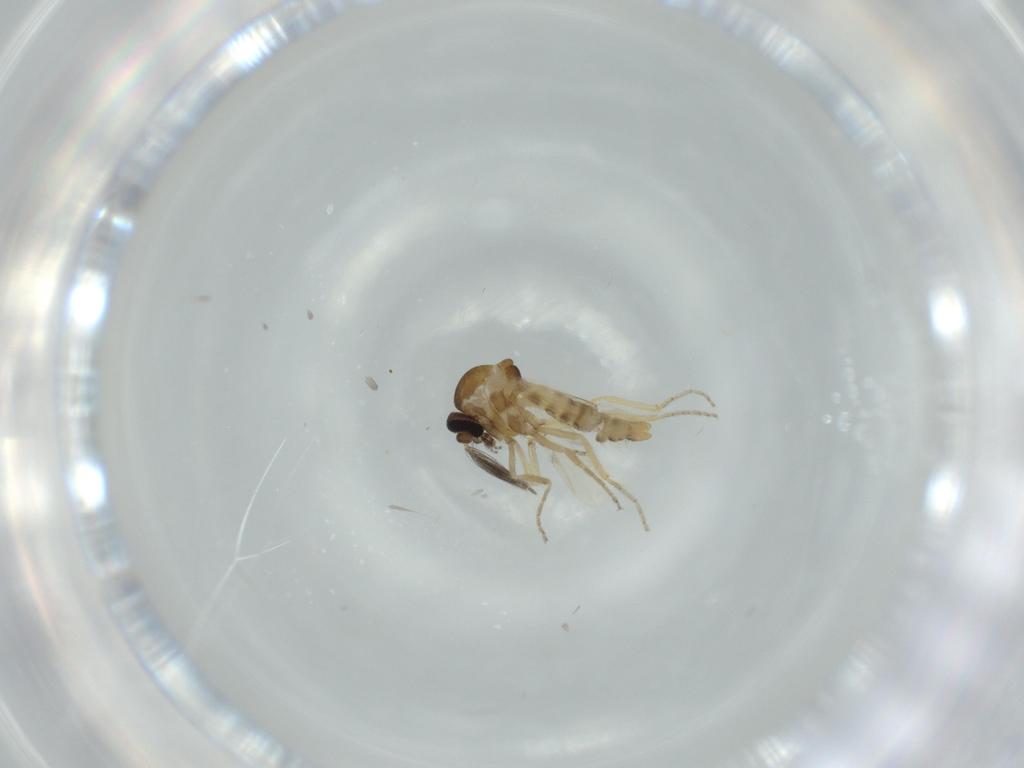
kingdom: Animalia
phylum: Arthropoda
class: Insecta
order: Diptera
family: Ceratopogonidae
